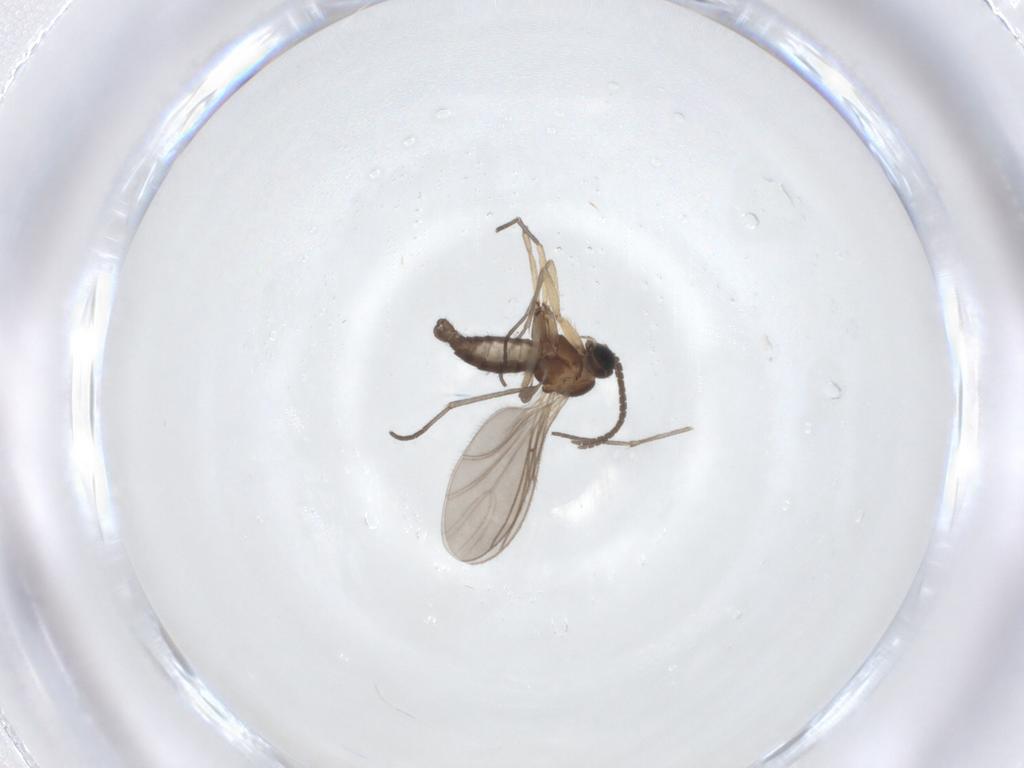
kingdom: Animalia
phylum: Arthropoda
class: Insecta
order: Diptera
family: Sciaridae
